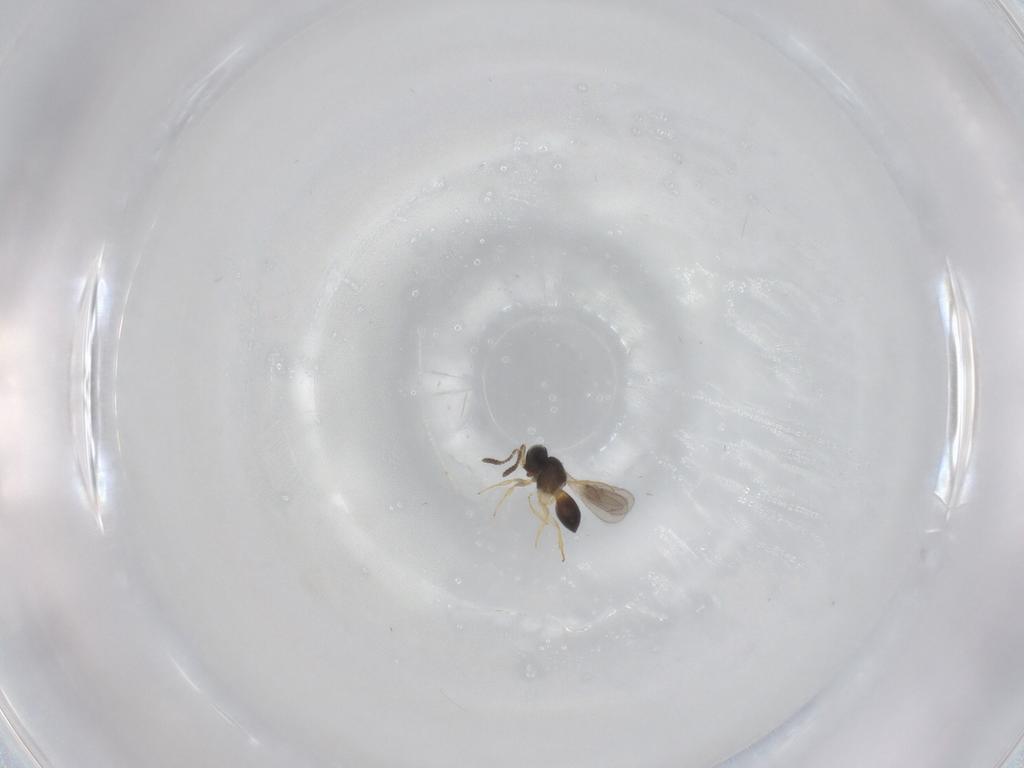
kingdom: Animalia
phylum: Arthropoda
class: Insecta
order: Hymenoptera
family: Scelionidae
